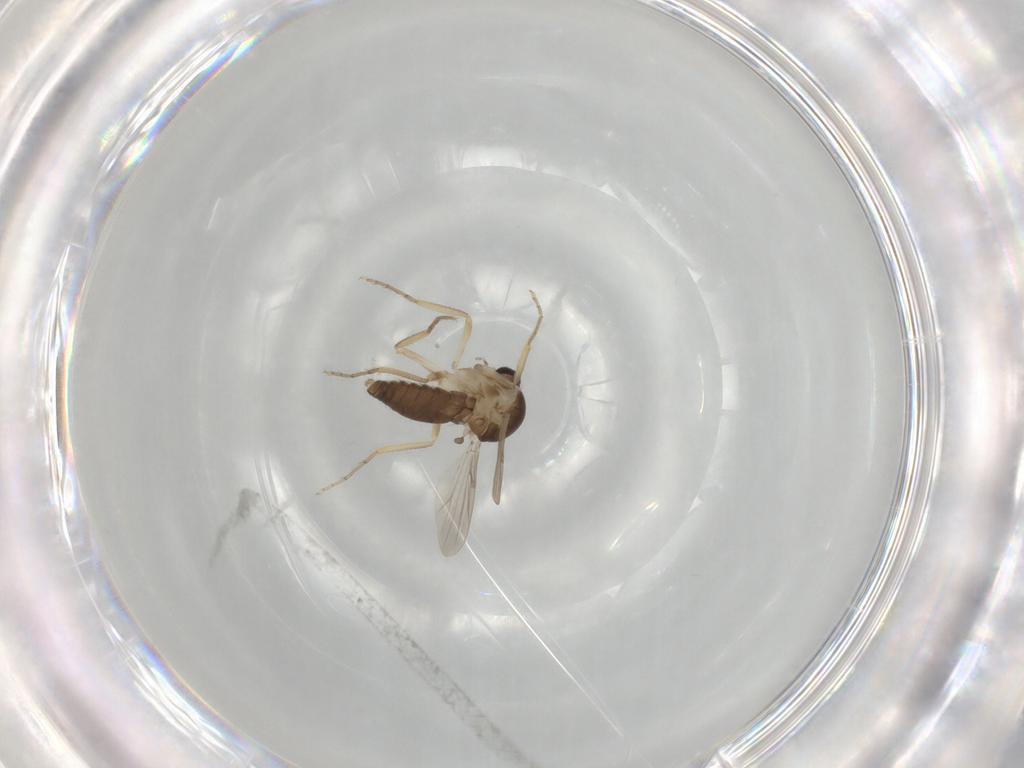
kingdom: Animalia
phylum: Arthropoda
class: Insecta
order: Diptera
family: Ceratopogonidae
